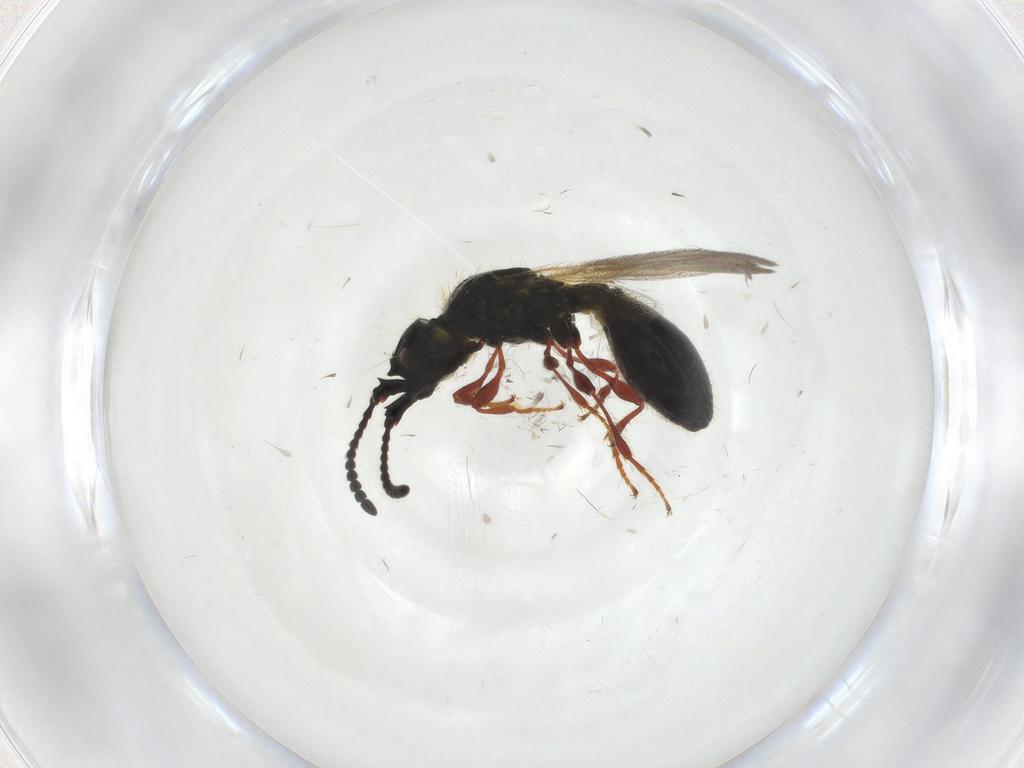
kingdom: Animalia
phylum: Arthropoda
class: Insecta
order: Hymenoptera
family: Diapriidae
